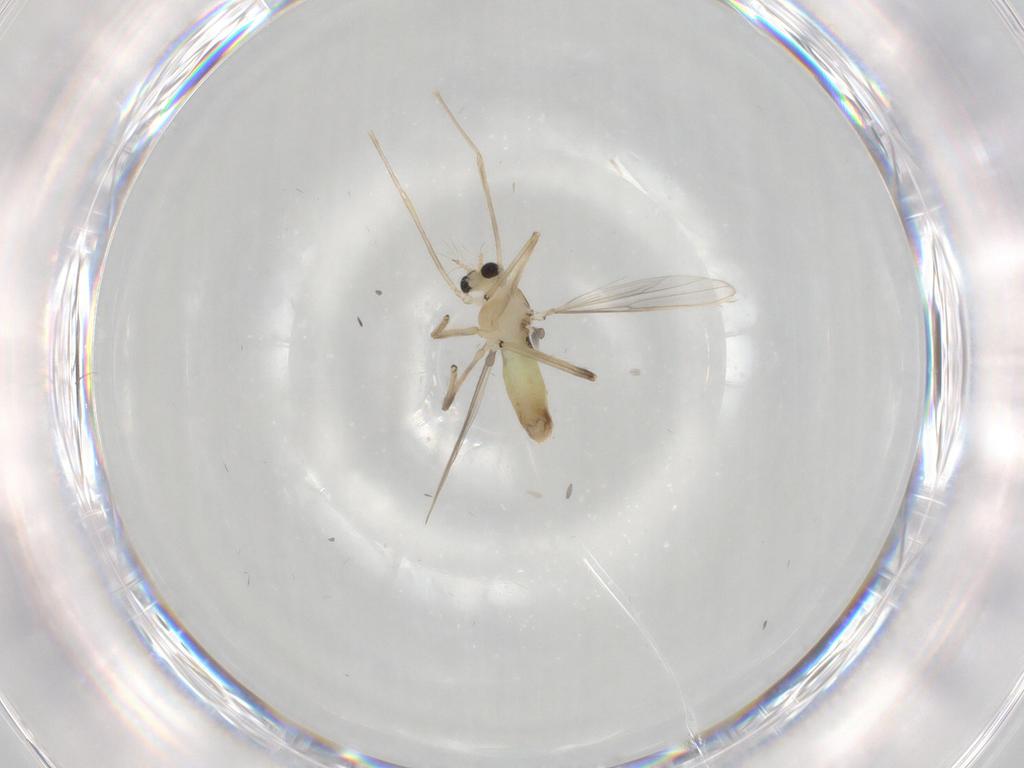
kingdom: Animalia
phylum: Arthropoda
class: Insecta
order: Diptera
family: Chironomidae
